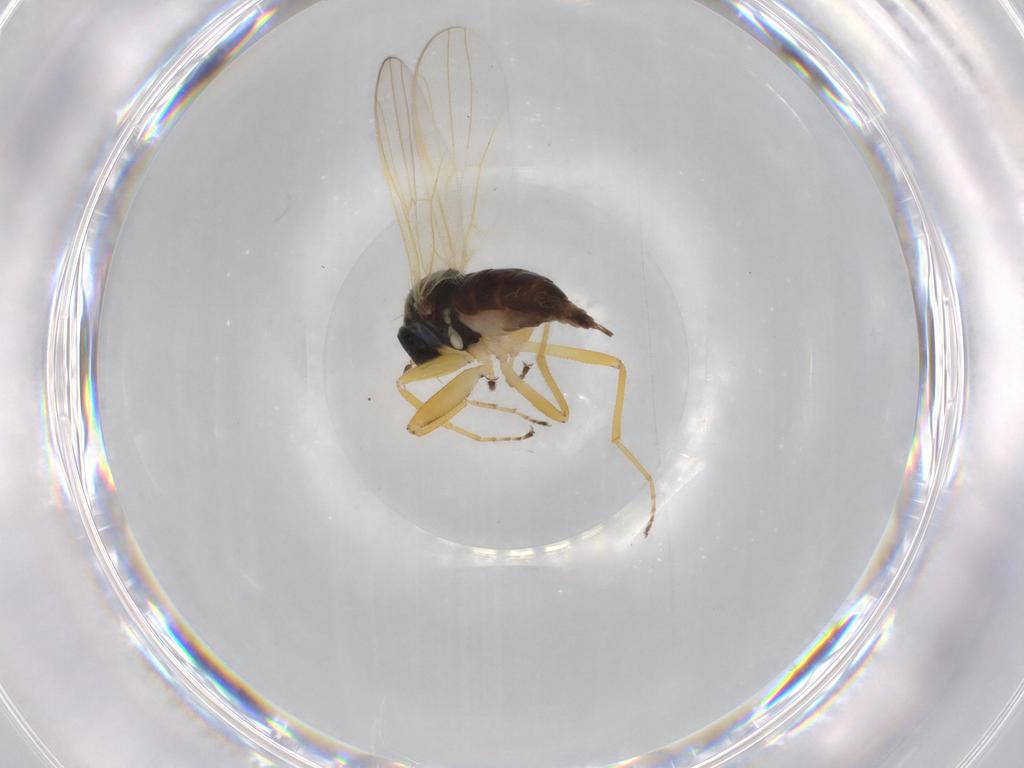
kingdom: Animalia
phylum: Arthropoda
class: Insecta
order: Diptera
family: Hybotidae
